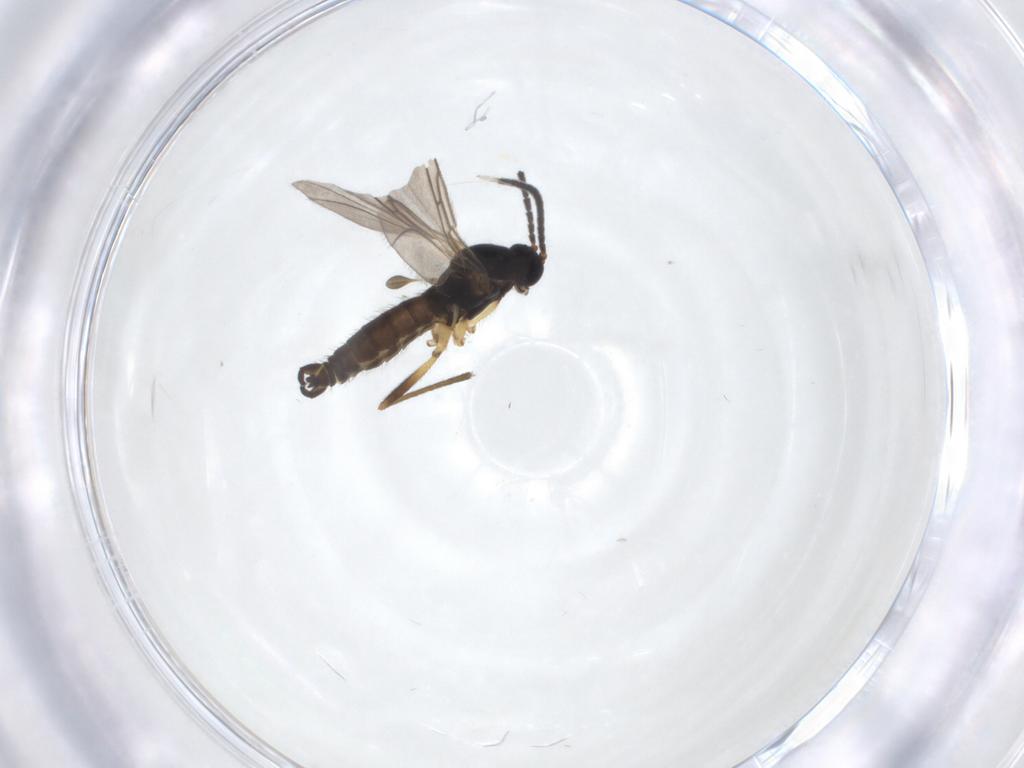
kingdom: Animalia
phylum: Arthropoda
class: Insecta
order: Diptera
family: Sciaridae
